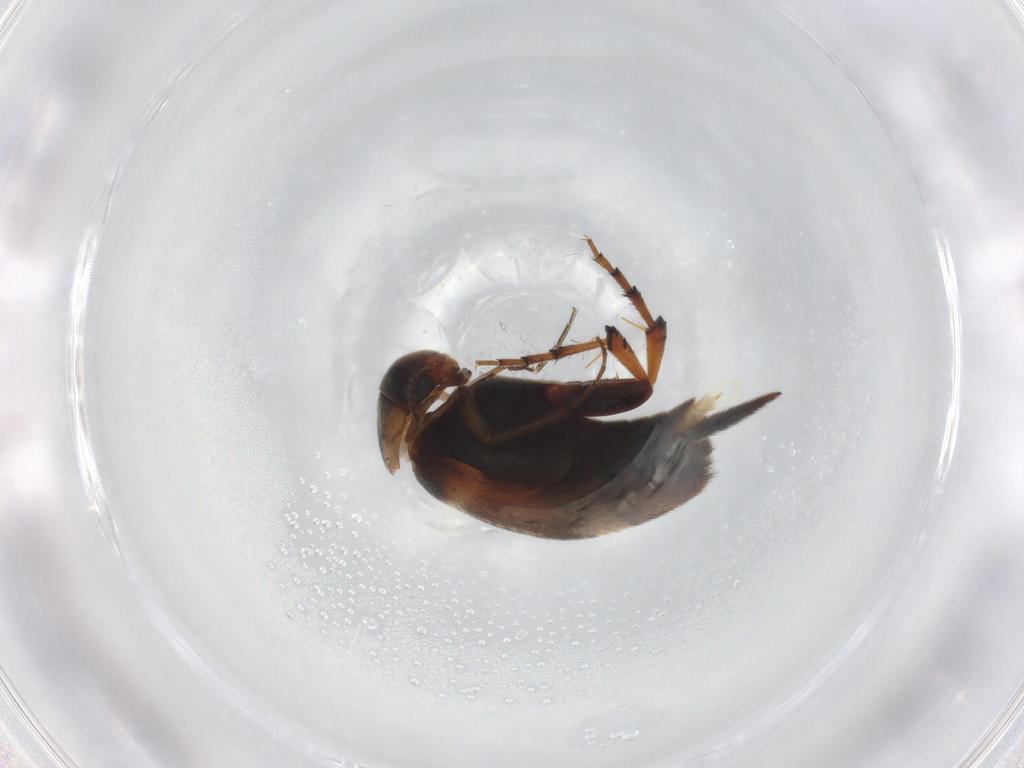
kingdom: Animalia
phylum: Arthropoda
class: Insecta
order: Coleoptera
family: Mordellidae
